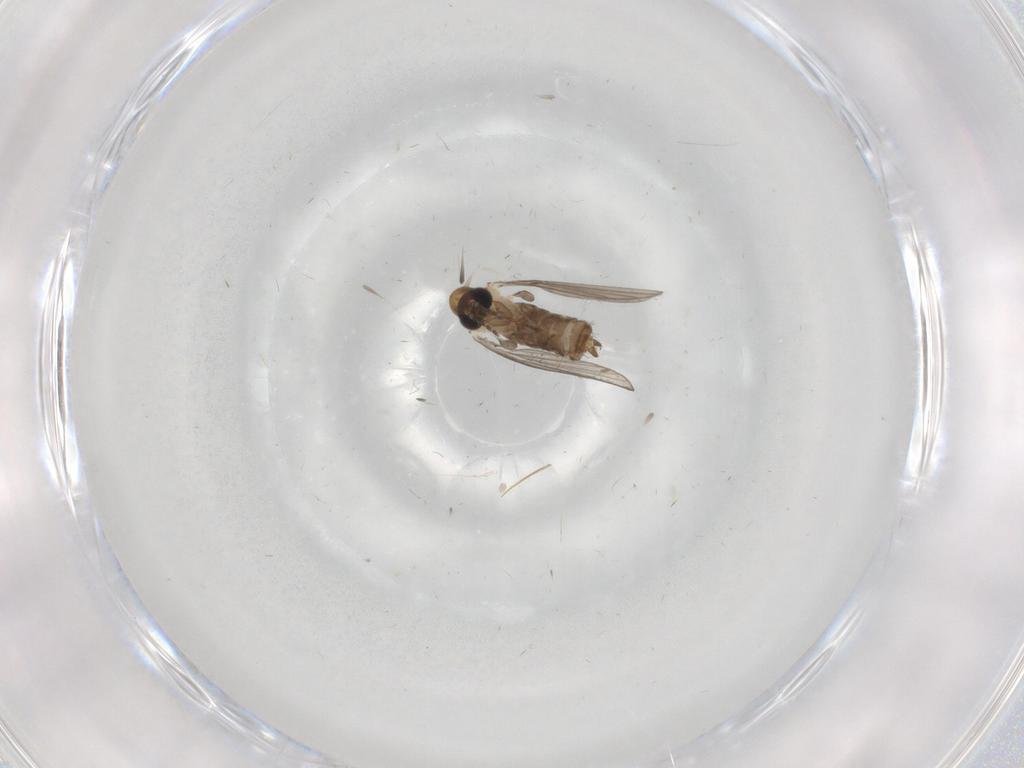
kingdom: Animalia
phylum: Arthropoda
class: Insecta
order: Diptera
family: Psychodidae
